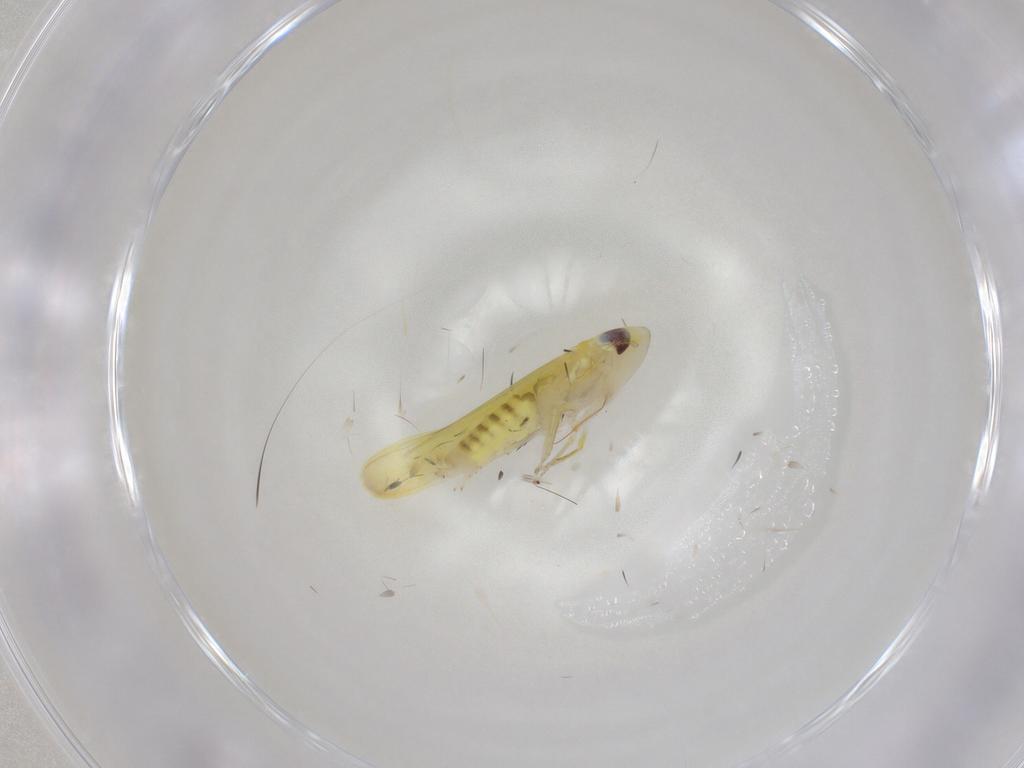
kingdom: Animalia
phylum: Arthropoda
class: Insecta
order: Hemiptera
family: Cicadellidae
